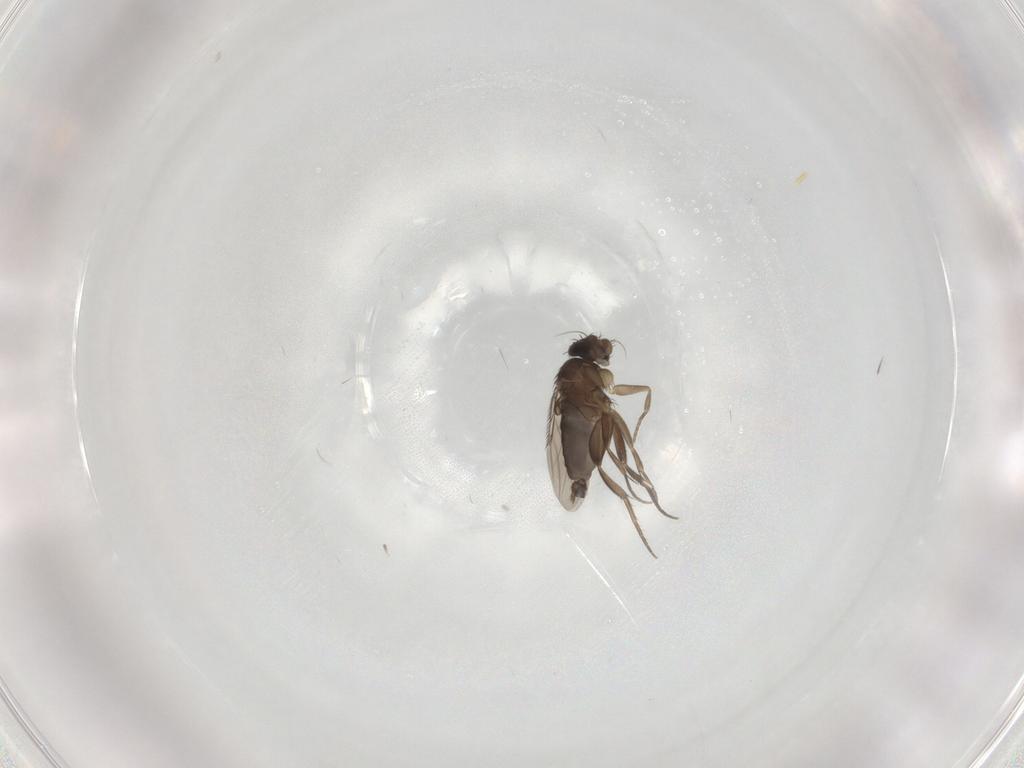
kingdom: Animalia
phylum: Arthropoda
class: Insecta
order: Diptera
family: Phoridae
